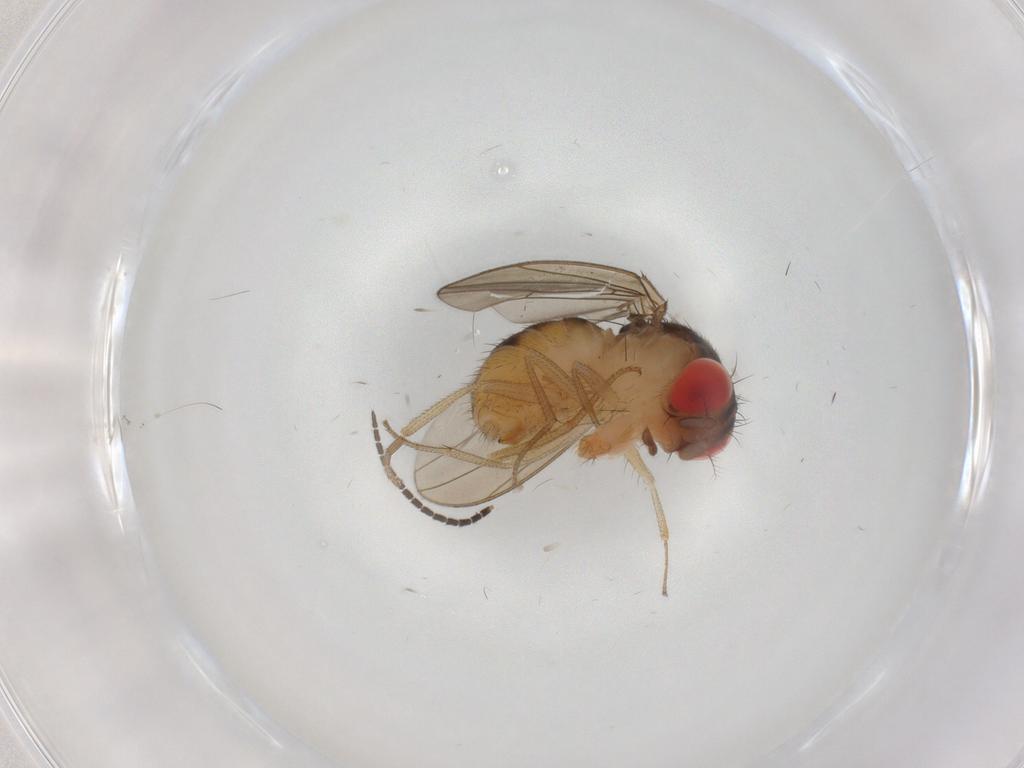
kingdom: Animalia
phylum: Arthropoda
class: Insecta
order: Diptera
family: Drosophilidae
